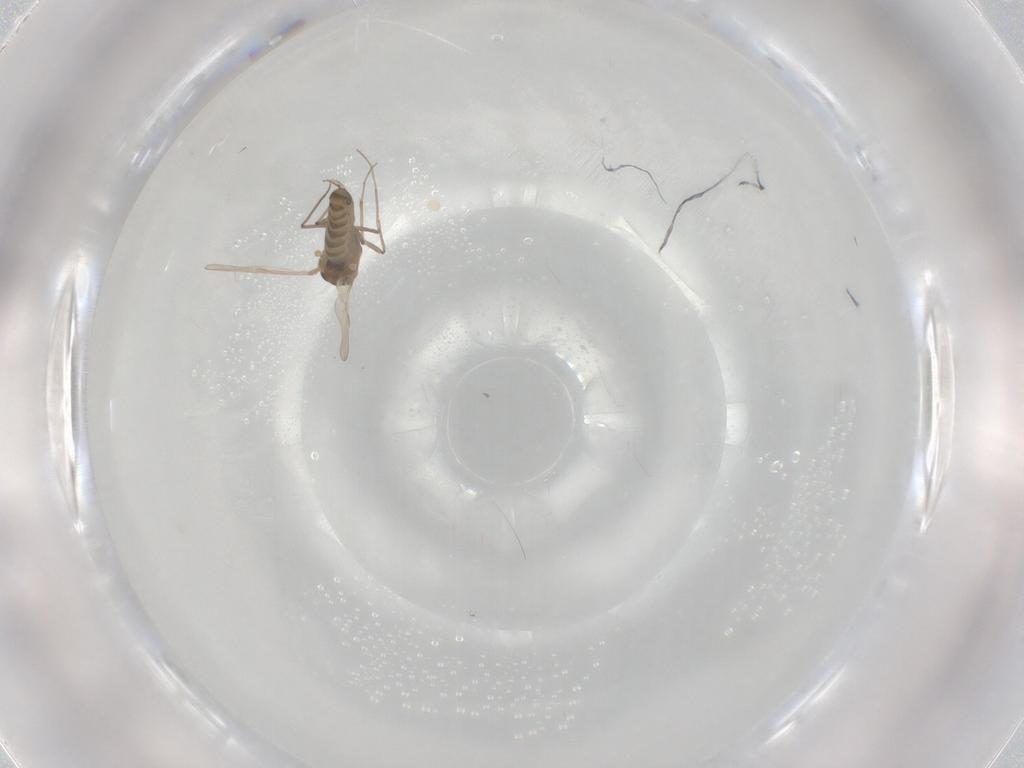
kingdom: Animalia
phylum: Arthropoda
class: Insecta
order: Diptera
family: Chironomidae
